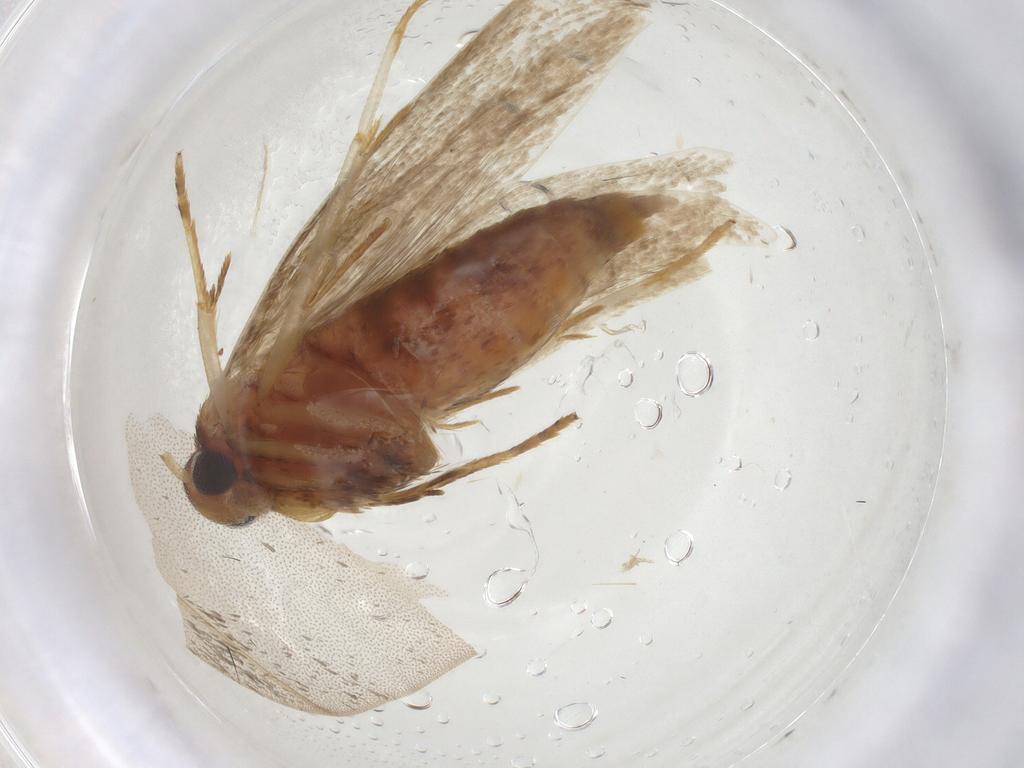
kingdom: Animalia
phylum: Arthropoda
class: Insecta
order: Lepidoptera
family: Blastobasidae
